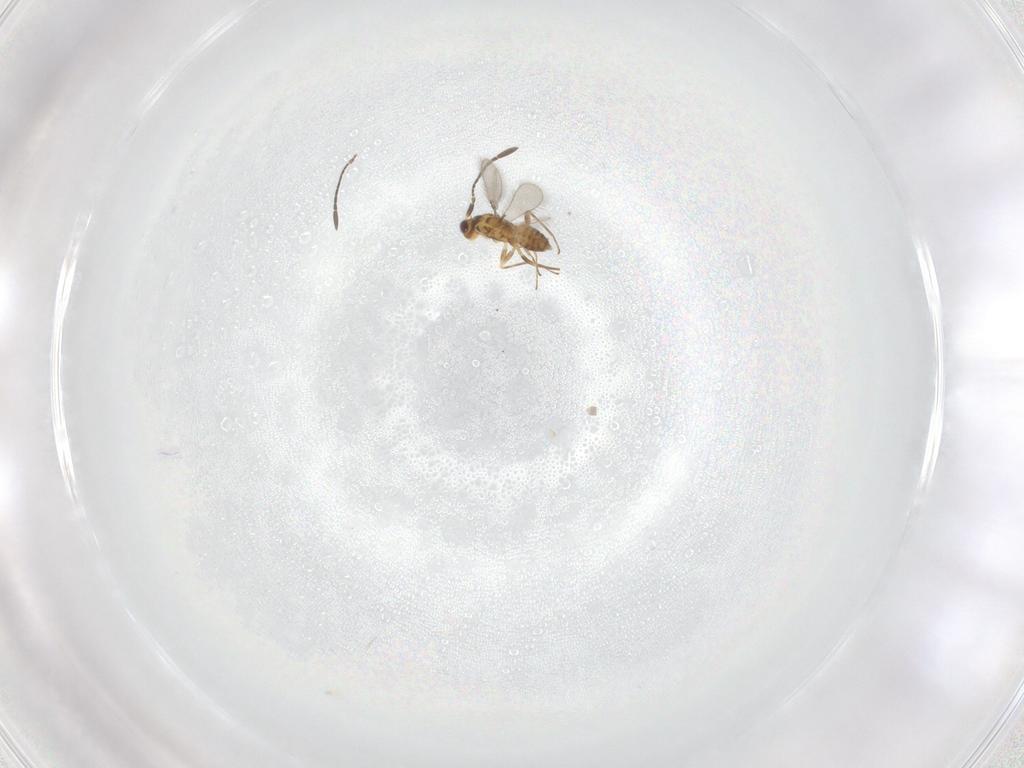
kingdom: Animalia
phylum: Arthropoda
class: Insecta
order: Hymenoptera
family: Mymaridae
